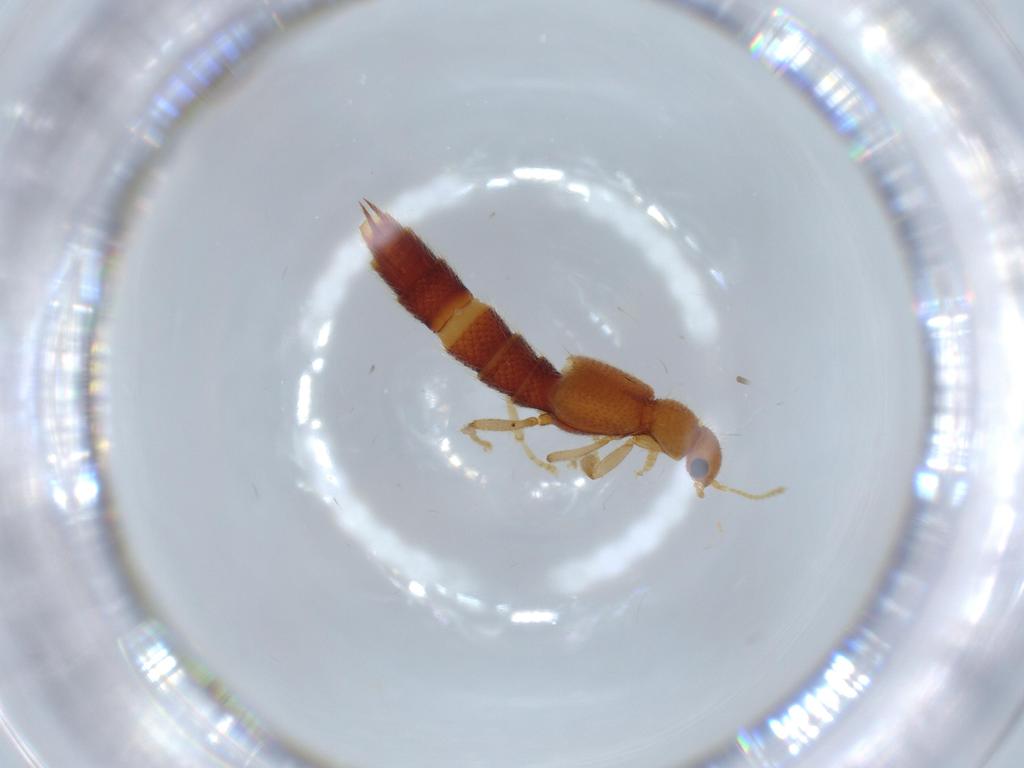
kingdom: Animalia
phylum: Arthropoda
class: Insecta
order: Coleoptera
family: Staphylinidae
